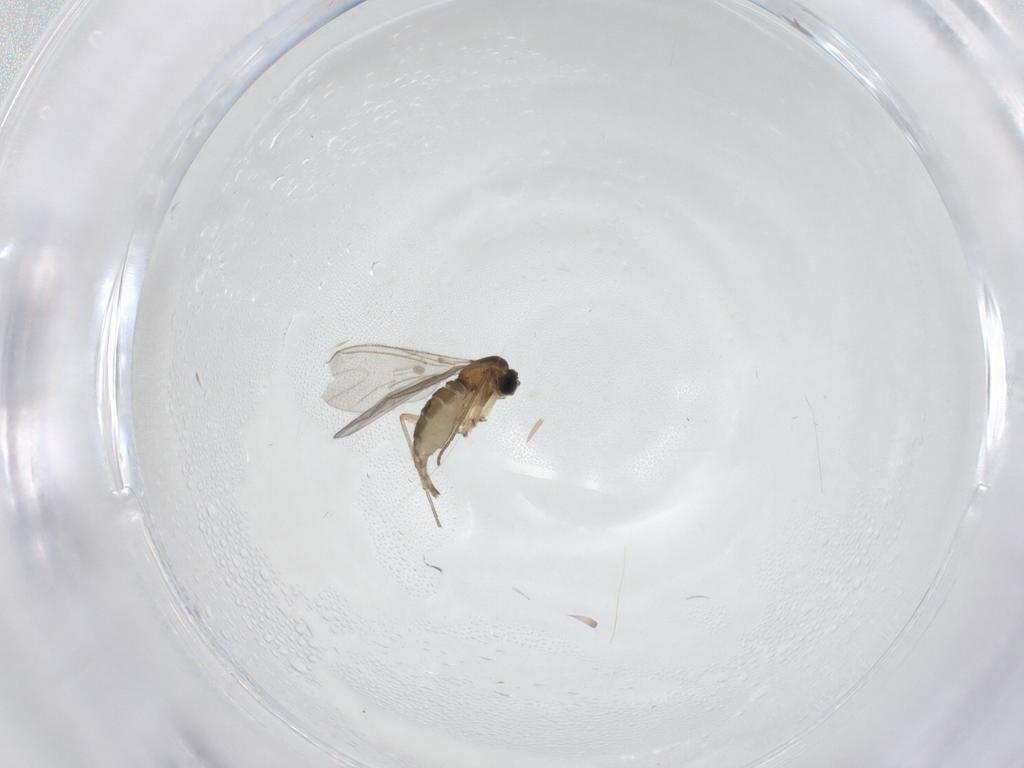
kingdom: Animalia
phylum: Arthropoda
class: Insecta
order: Diptera
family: Sciaridae
